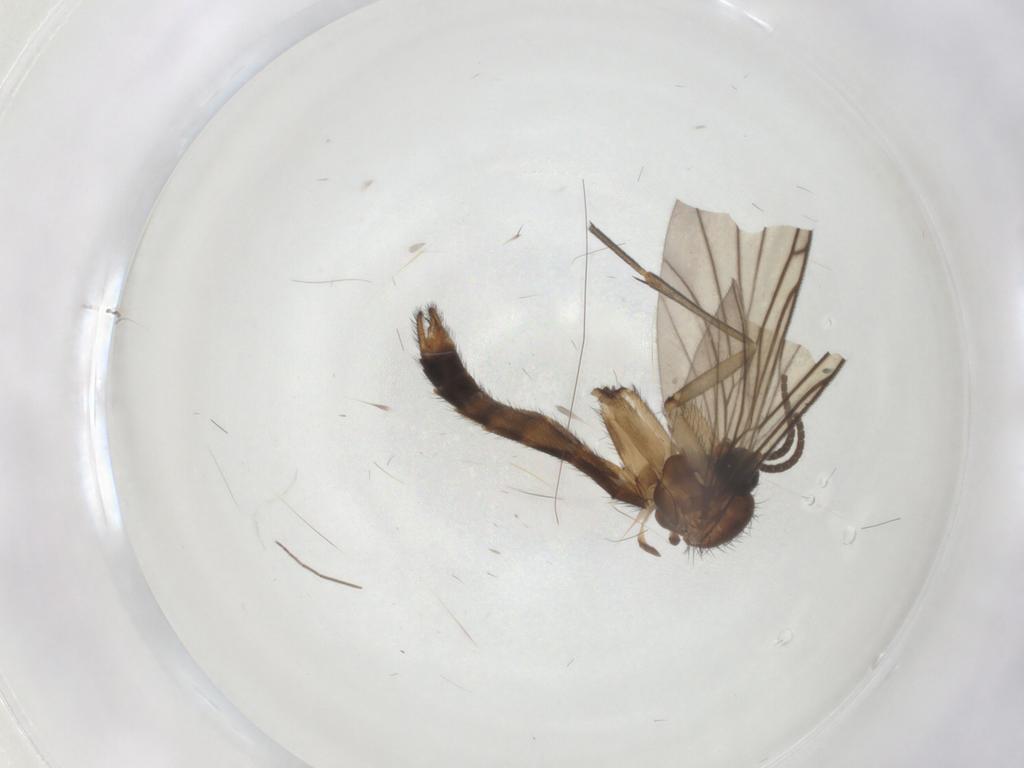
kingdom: Animalia
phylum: Arthropoda
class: Insecta
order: Diptera
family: Keroplatidae
